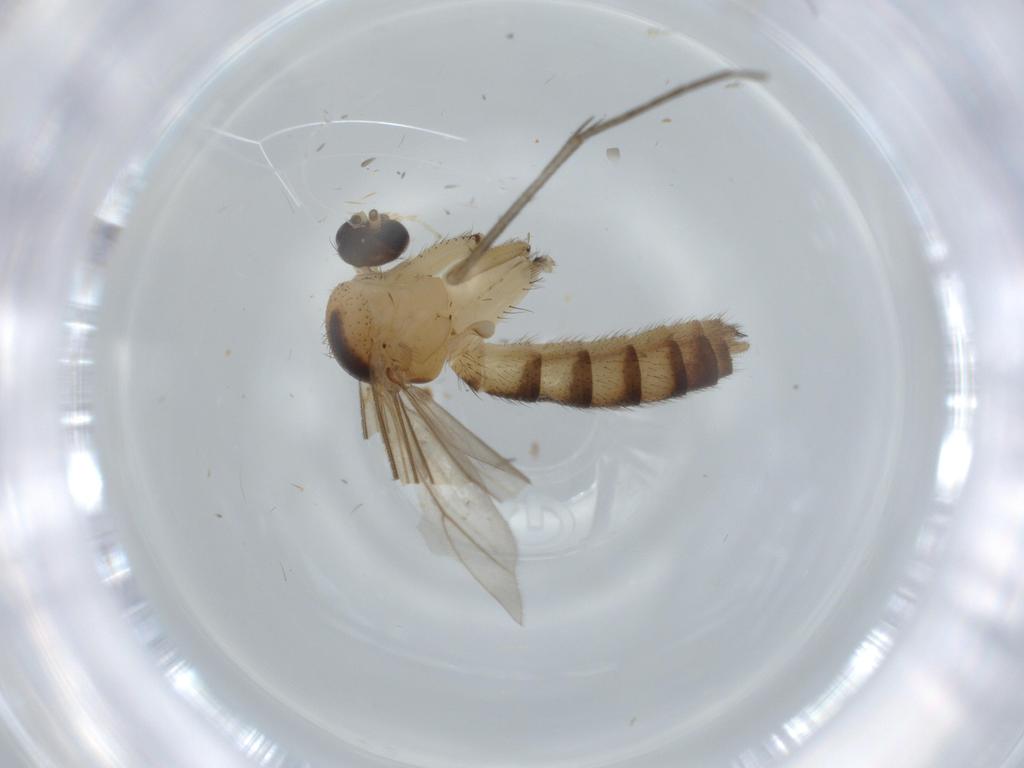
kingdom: Animalia
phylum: Arthropoda
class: Insecta
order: Diptera
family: Mycetophilidae
